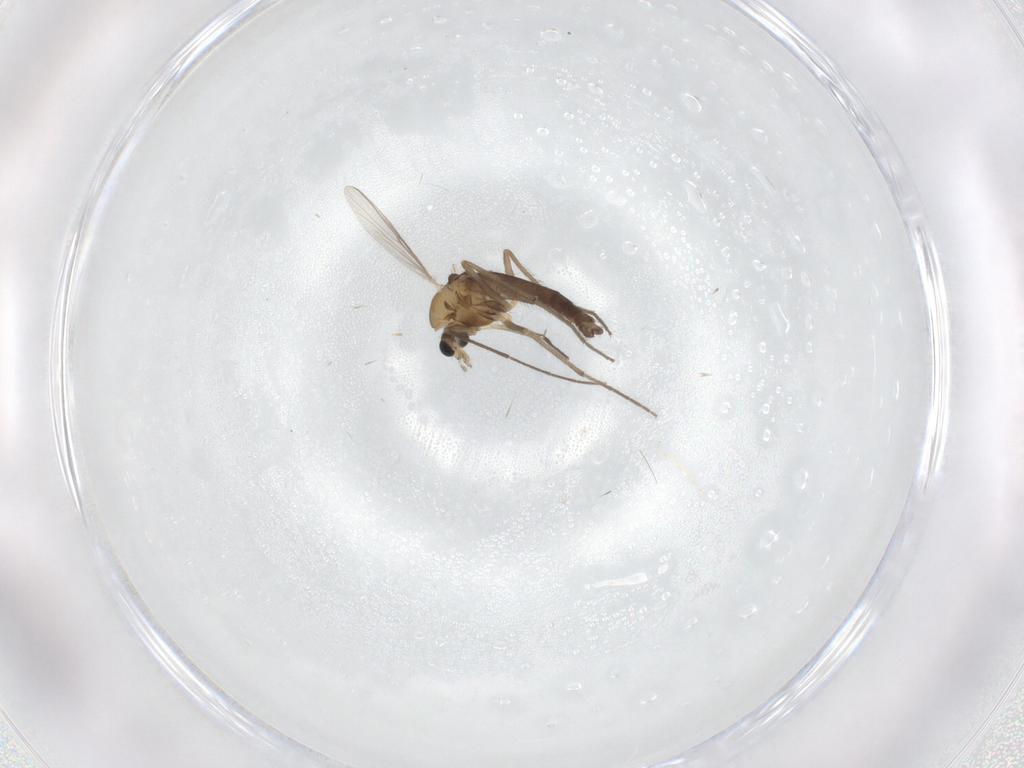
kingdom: Animalia
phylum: Arthropoda
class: Insecta
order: Diptera
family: Chironomidae
